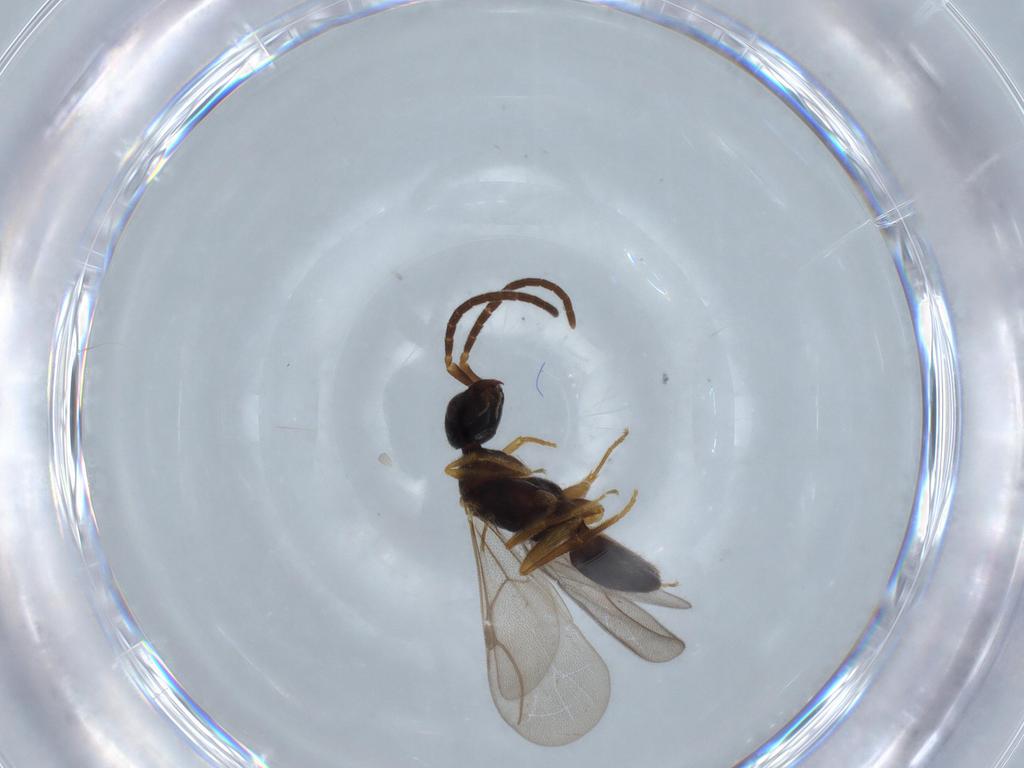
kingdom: Animalia
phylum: Arthropoda
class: Insecta
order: Hymenoptera
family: Bethylidae
